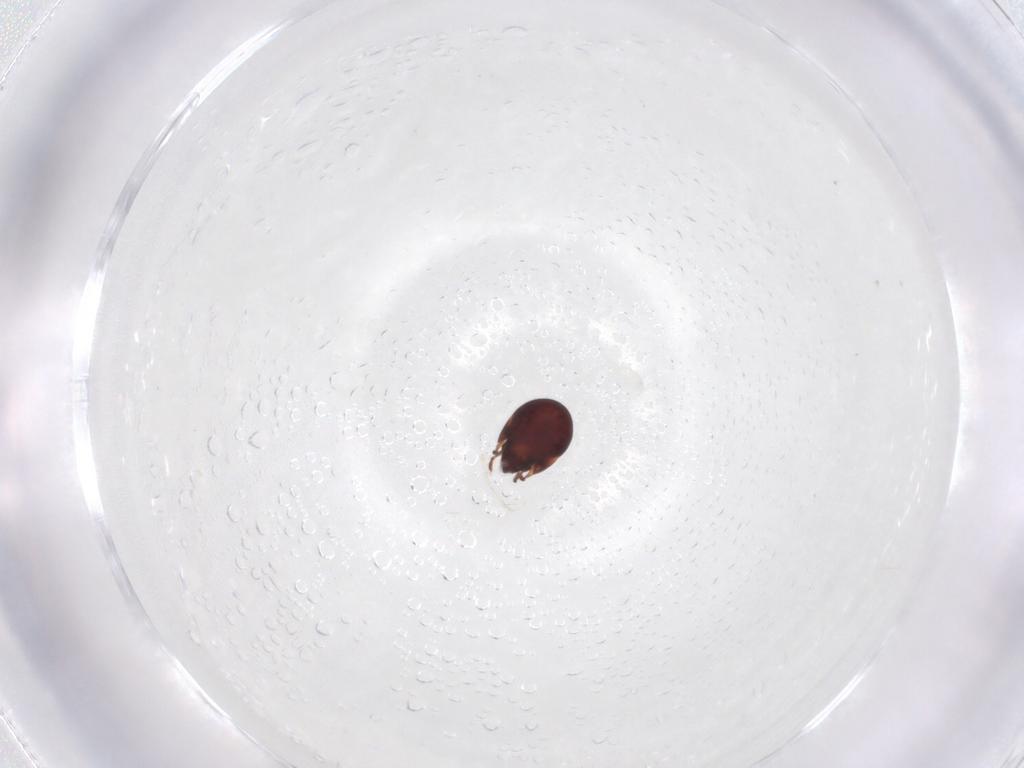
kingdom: Animalia
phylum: Arthropoda
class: Arachnida
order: Sarcoptiformes
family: Humerobatidae
